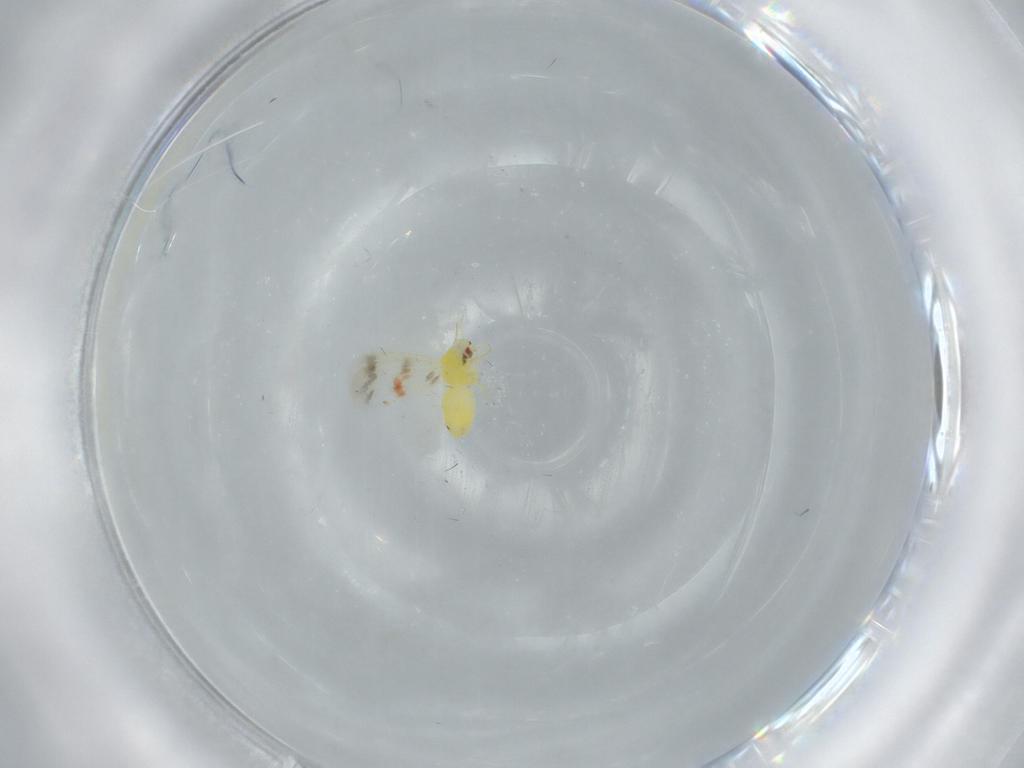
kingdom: Animalia
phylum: Arthropoda
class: Insecta
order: Hemiptera
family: Aleyrodidae
